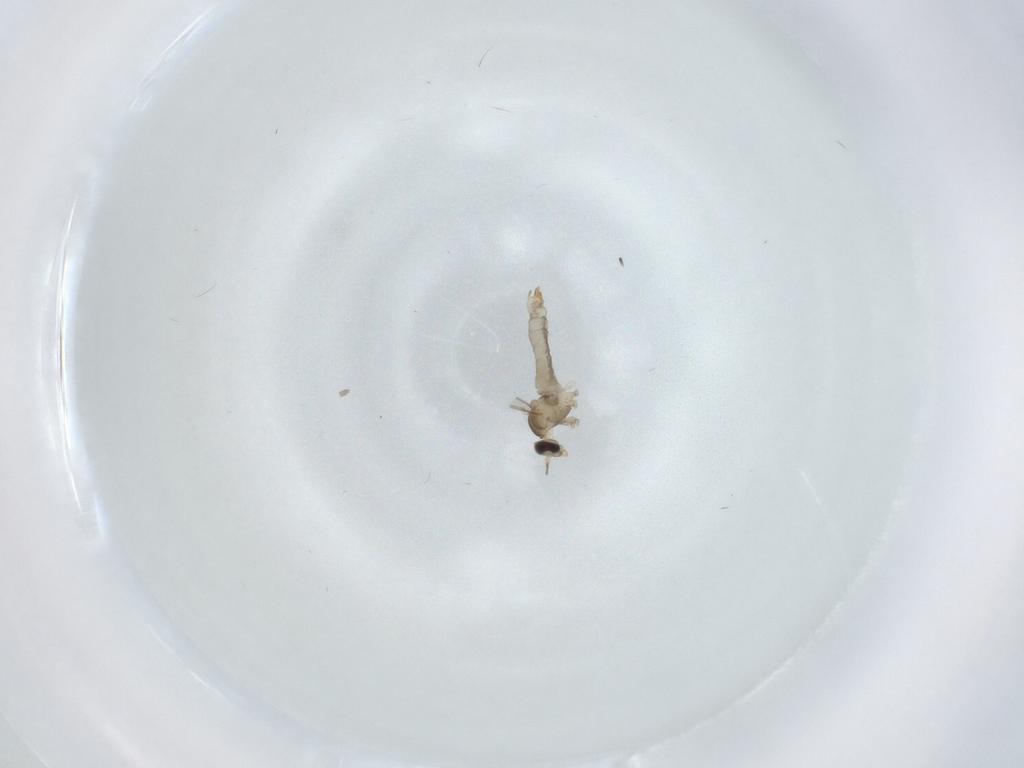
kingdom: Animalia
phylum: Arthropoda
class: Insecta
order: Diptera
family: Cecidomyiidae
